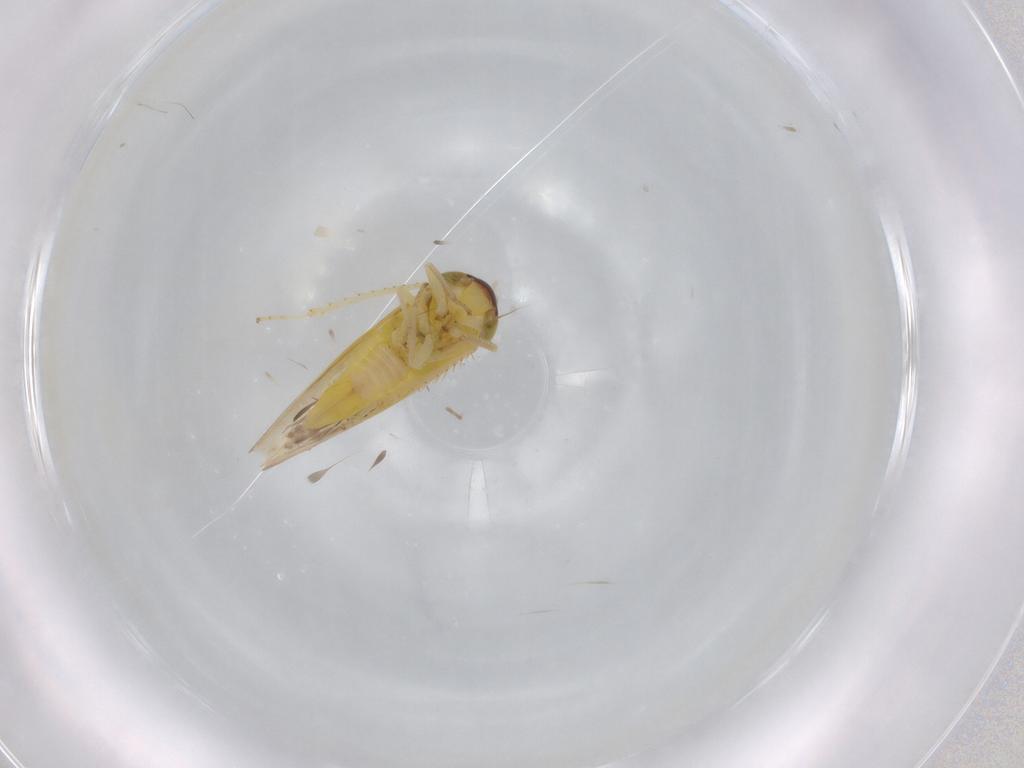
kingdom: Animalia
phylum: Arthropoda
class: Insecta
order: Hemiptera
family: Cicadellidae
